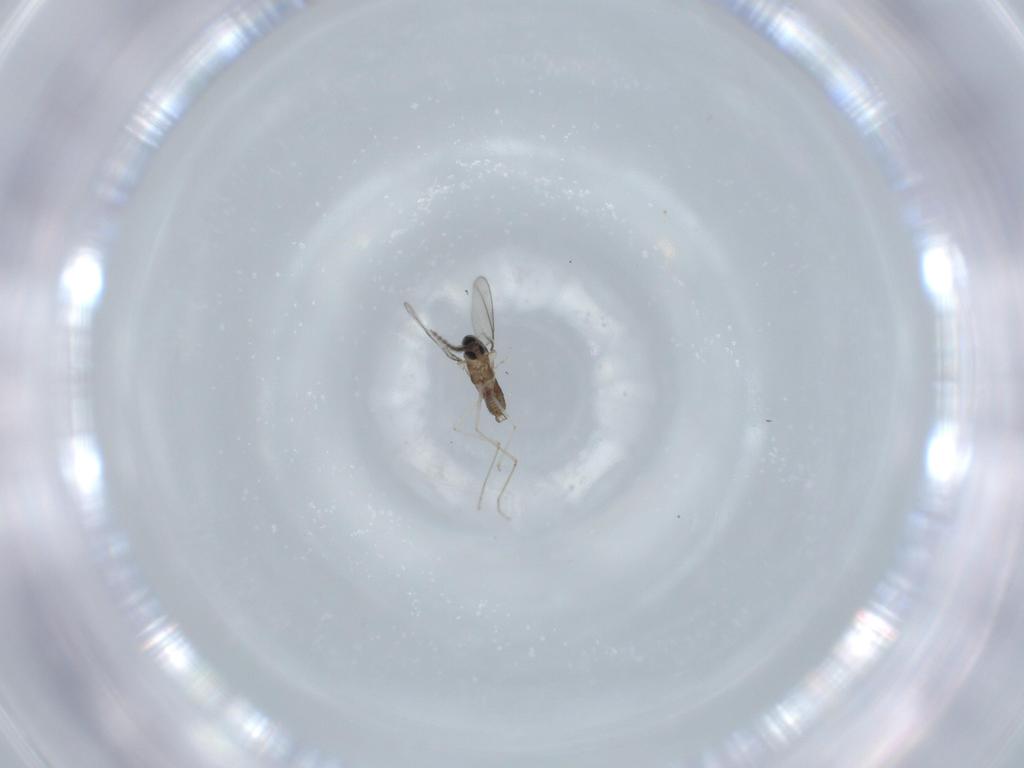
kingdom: Animalia
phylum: Arthropoda
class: Insecta
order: Diptera
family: Cecidomyiidae
